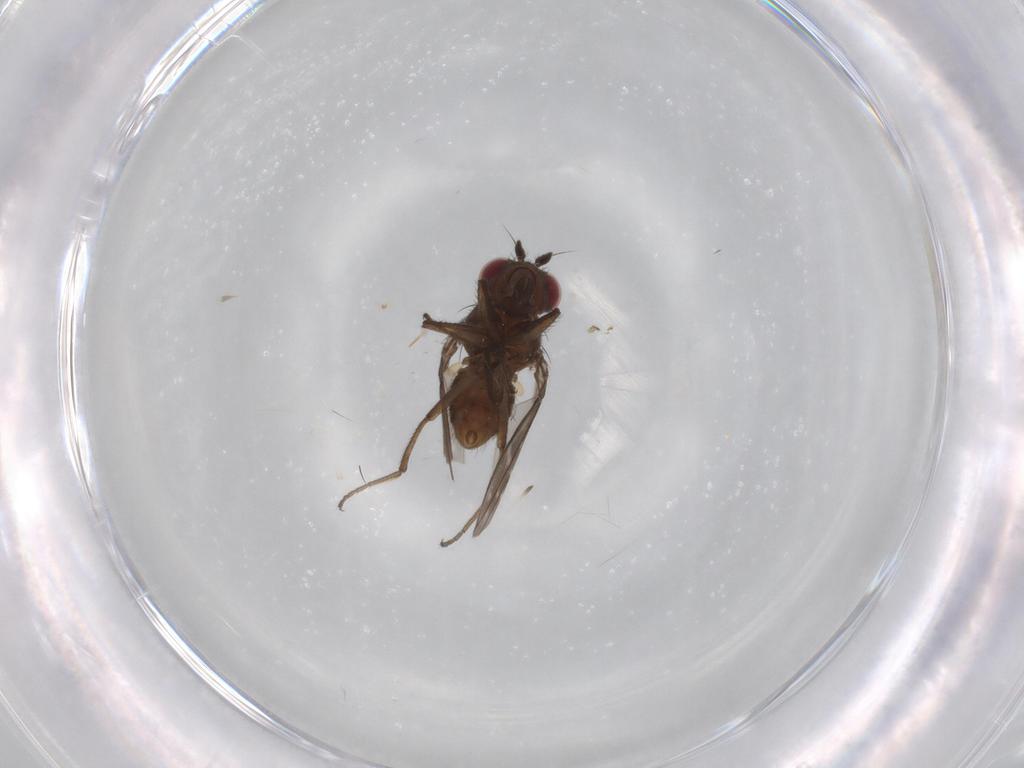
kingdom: Animalia
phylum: Arthropoda
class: Insecta
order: Diptera
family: Ephydridae
